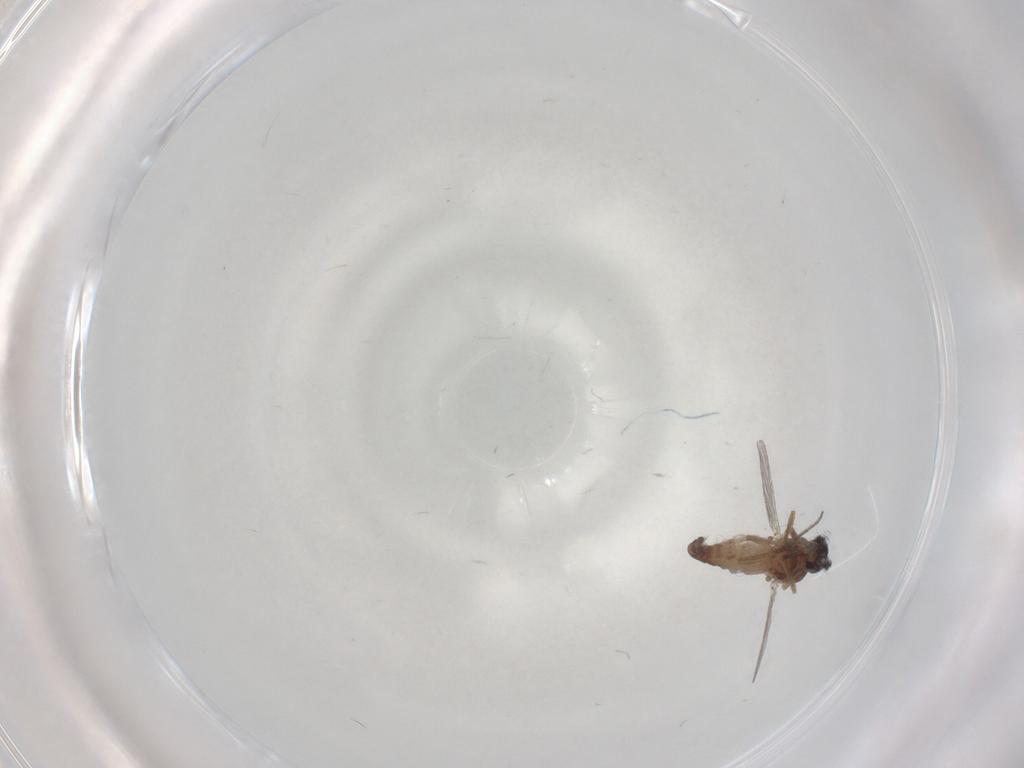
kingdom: Animalia
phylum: Arthropoda
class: Insecta
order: Diptera
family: Ceratopogonidae
